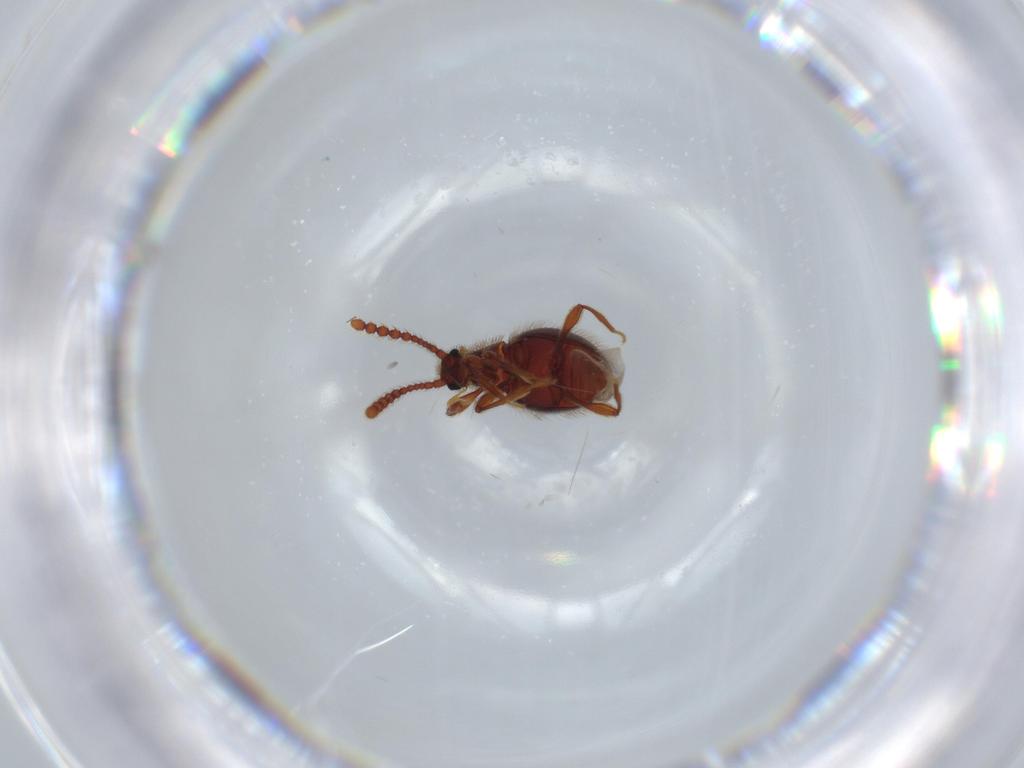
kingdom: Animalia
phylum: Arthropoda
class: Insecta
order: Coleoptera
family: Staphylinidae
